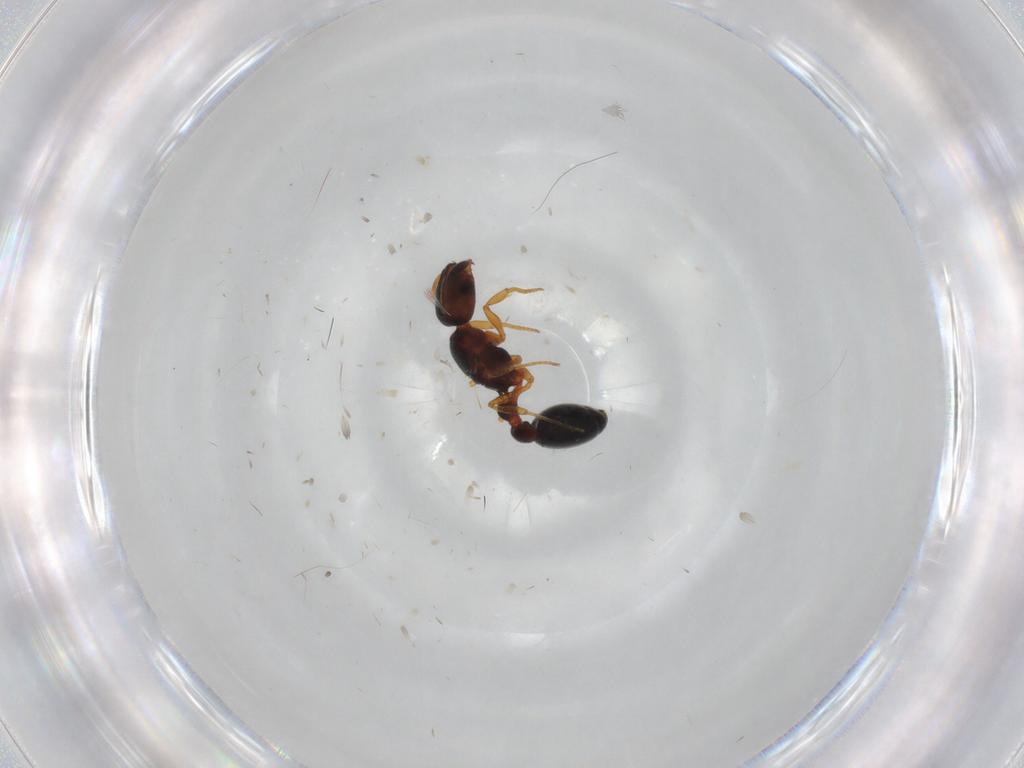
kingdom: Animalia
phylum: Arthropoda
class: Insecta
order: Hymenoptera
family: Formicidae
